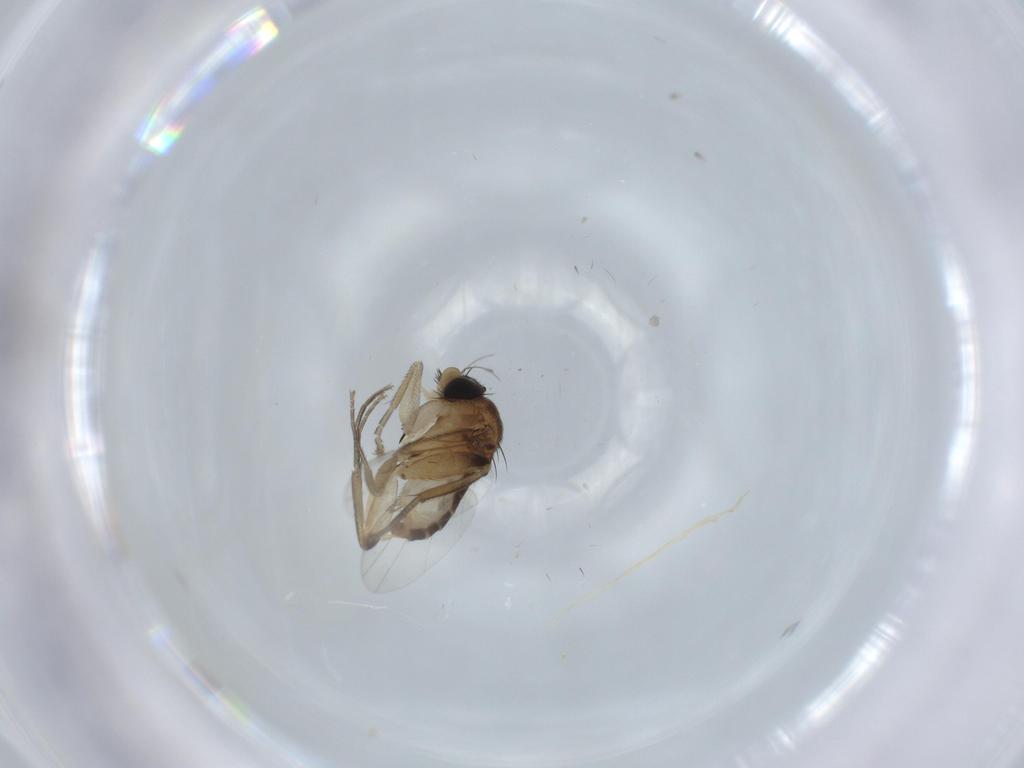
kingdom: Animalia
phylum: Arthropoda
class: Insecta
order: Diptera
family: Phoridae
